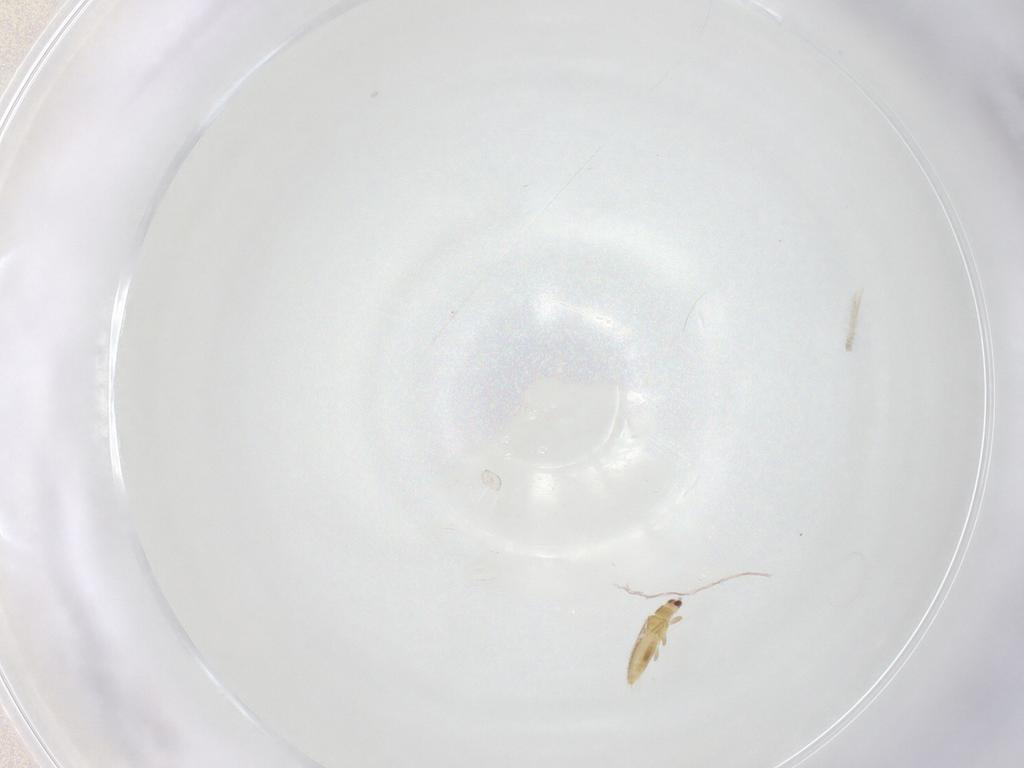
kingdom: Animalia
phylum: Arthropoda
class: Insecta
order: Thysanoptera
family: Thripidae
